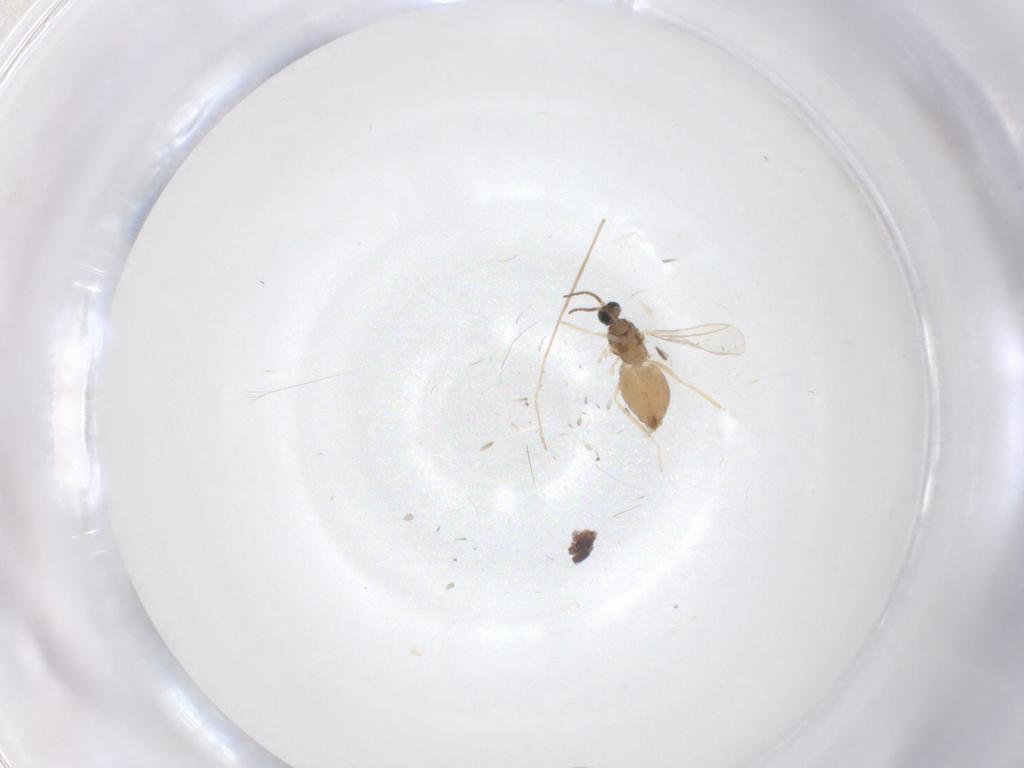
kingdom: Animalia
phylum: Arthropoda
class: Insecta
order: Diptera
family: Cecidomyiidae
